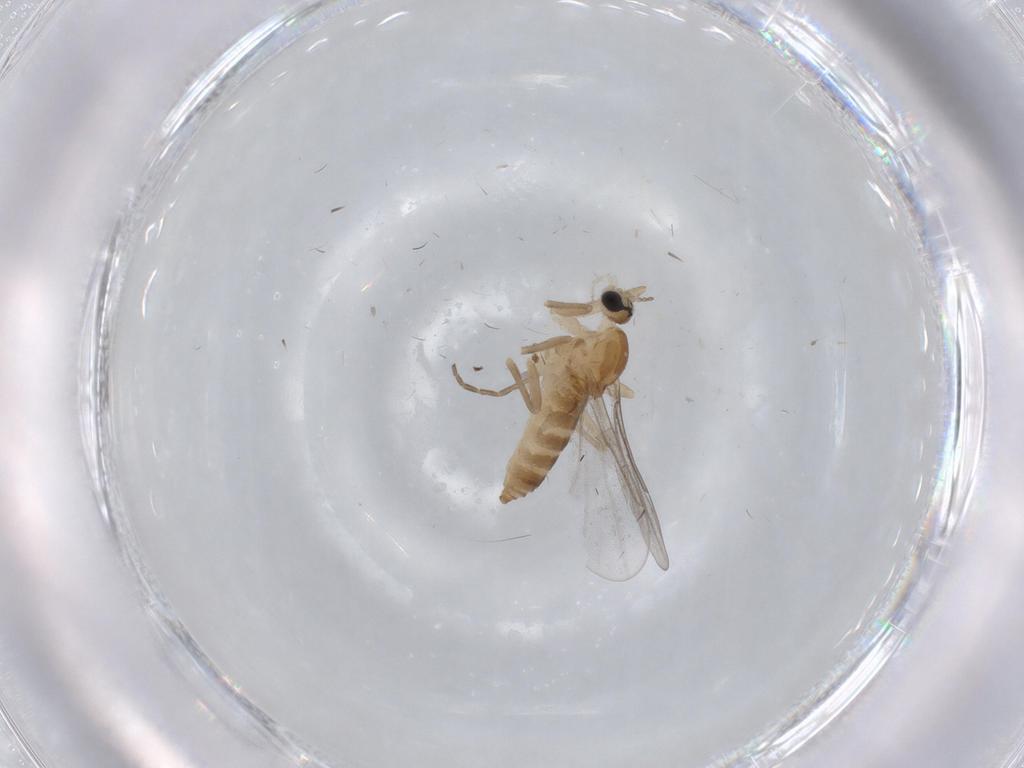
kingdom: Animalia
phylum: Arthropoda
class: Insecta
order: Diptera
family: Cecidomyiidae
